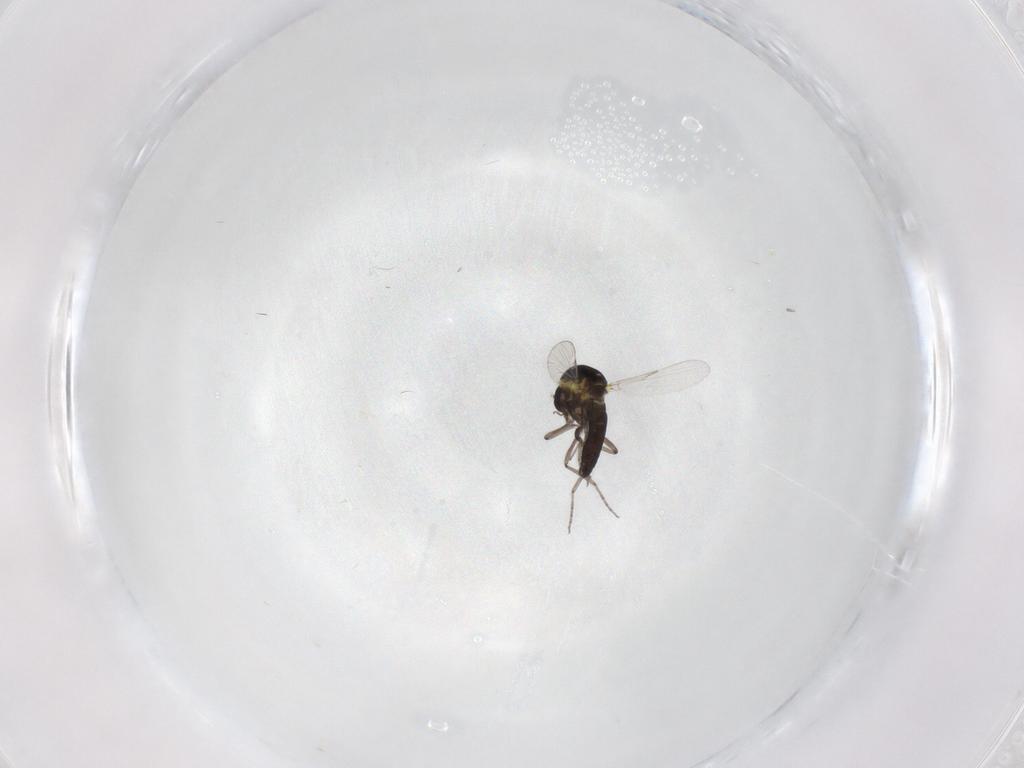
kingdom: Animalia
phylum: Arthropoda
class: Insecta
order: Diptera
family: Ceratopogonidae
